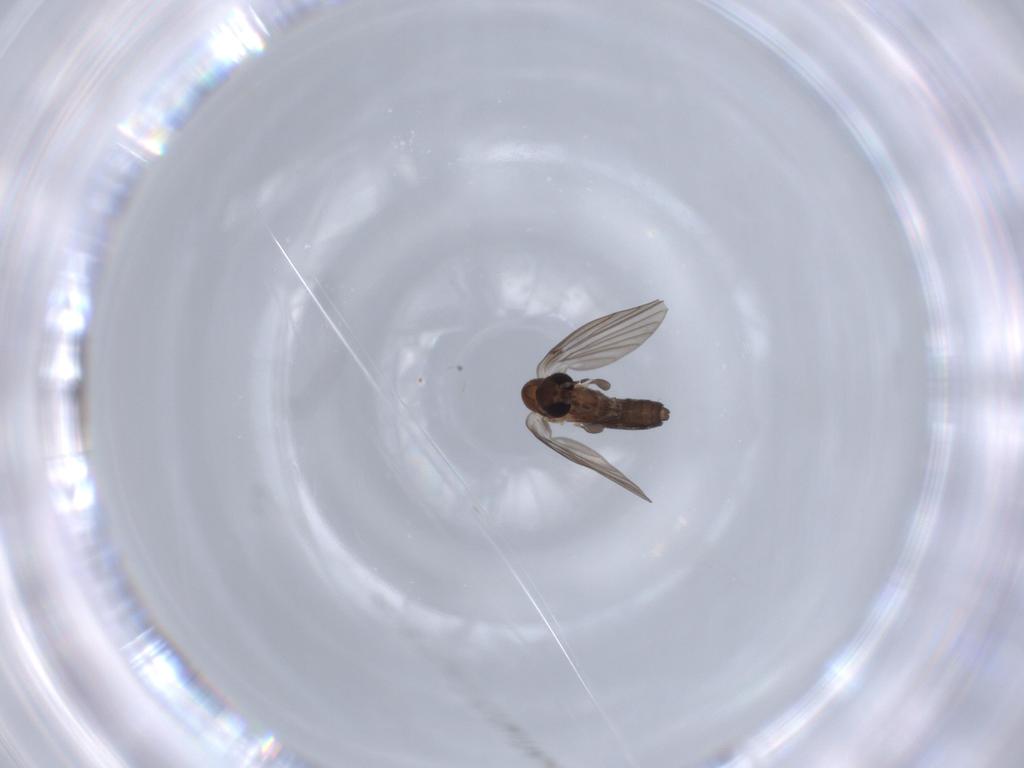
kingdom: Animalia
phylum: Arthropoda
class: Insecta
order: Diptera
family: Psychodidae
